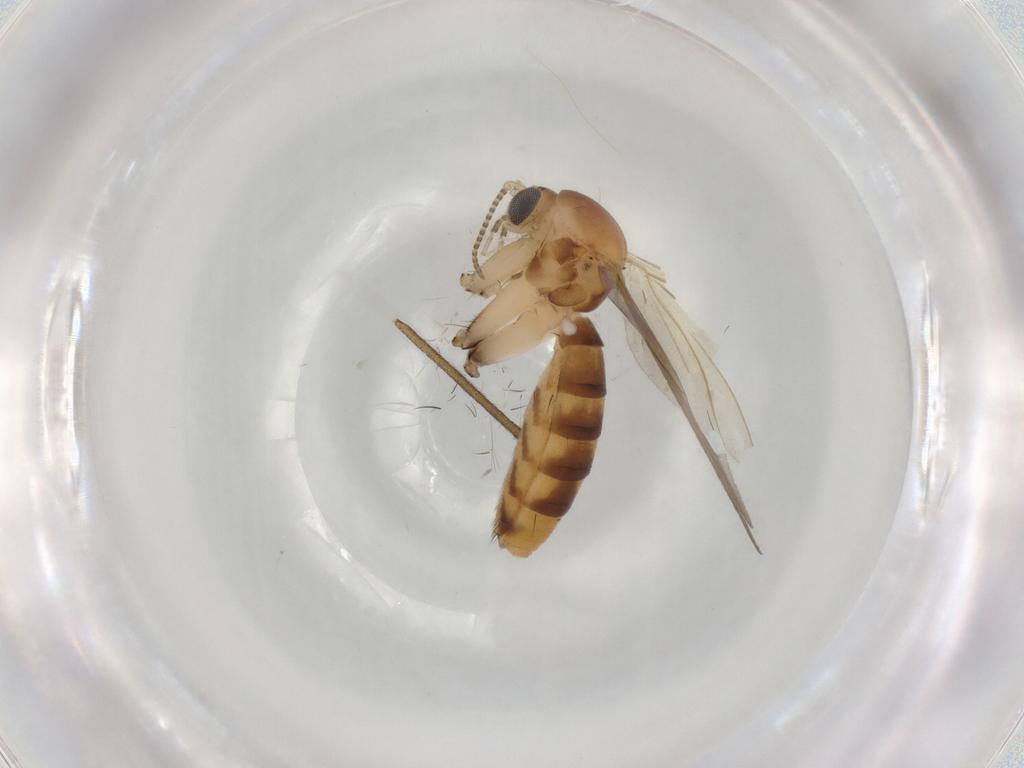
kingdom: Animalia
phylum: Arthropoda
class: Insecta
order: Diptera
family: Mycetophilidae
